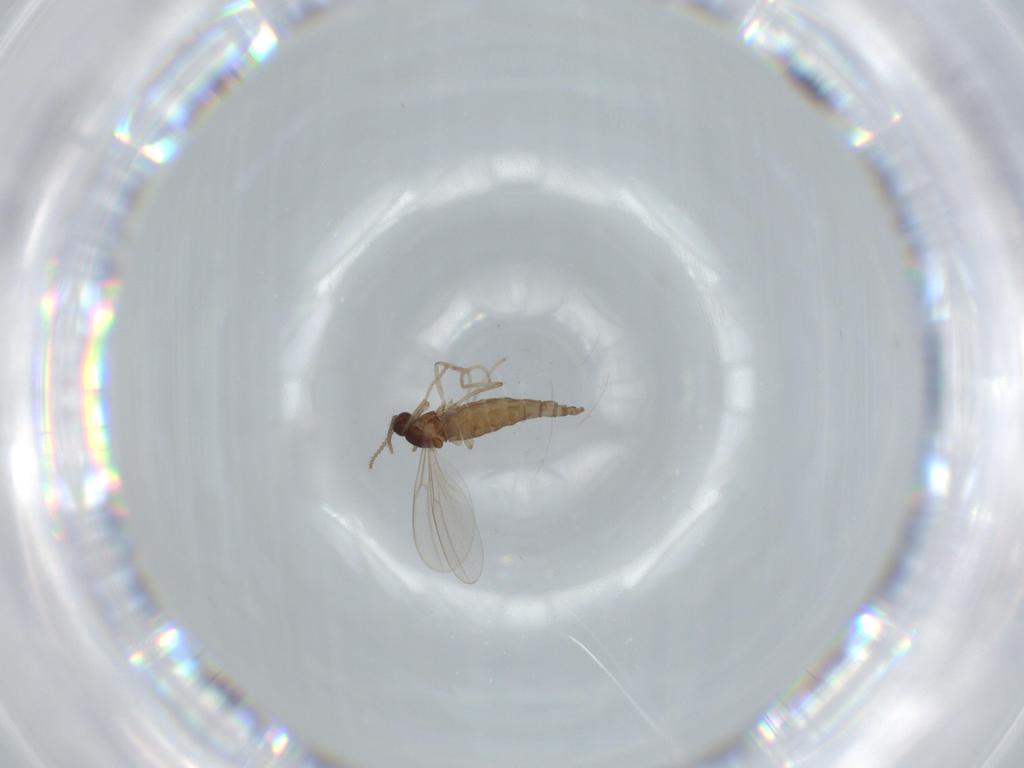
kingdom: Animalia
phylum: Arthropoda
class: Insecta
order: Diptera
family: Cecidomyiidae
